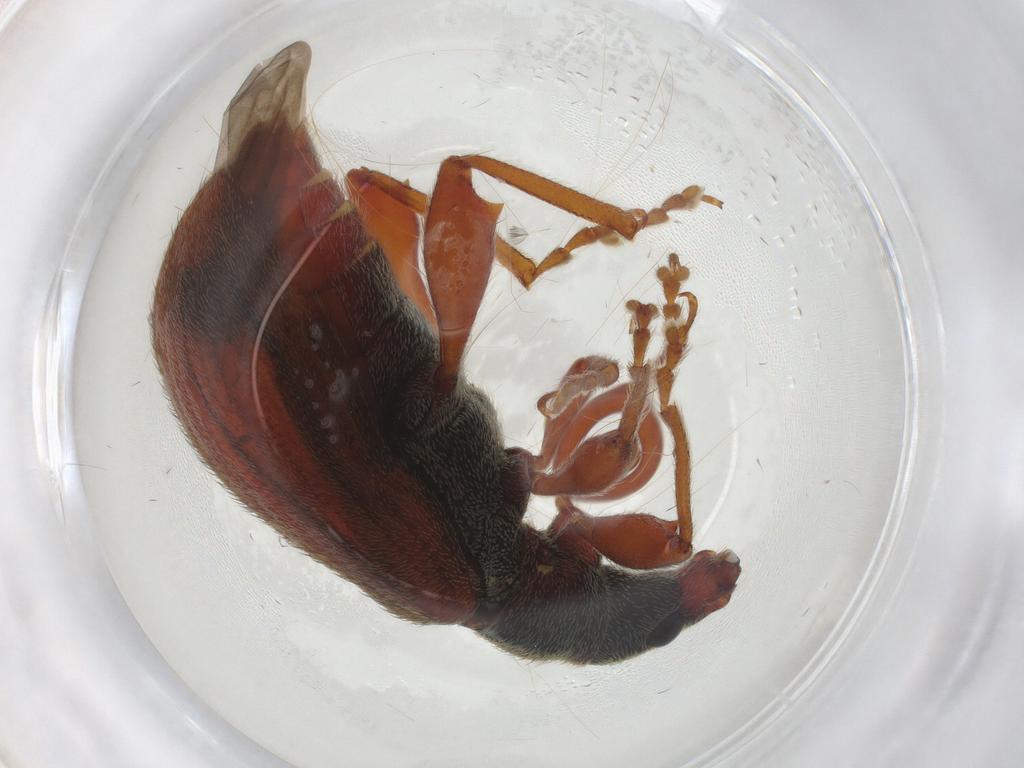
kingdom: Animalia
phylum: Arthropoda
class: Insecta
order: Coleoptera
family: Curculionidae
